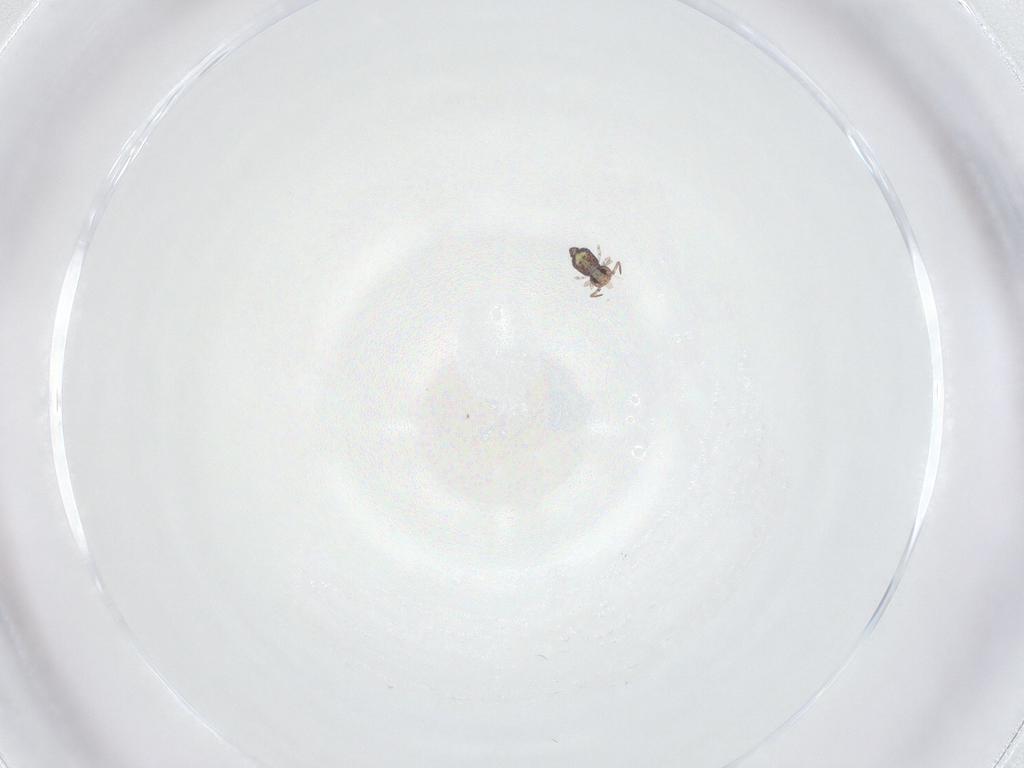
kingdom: Animalia
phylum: Arthropoda
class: Collembola
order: Symphypleona
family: Bourletiellidae
